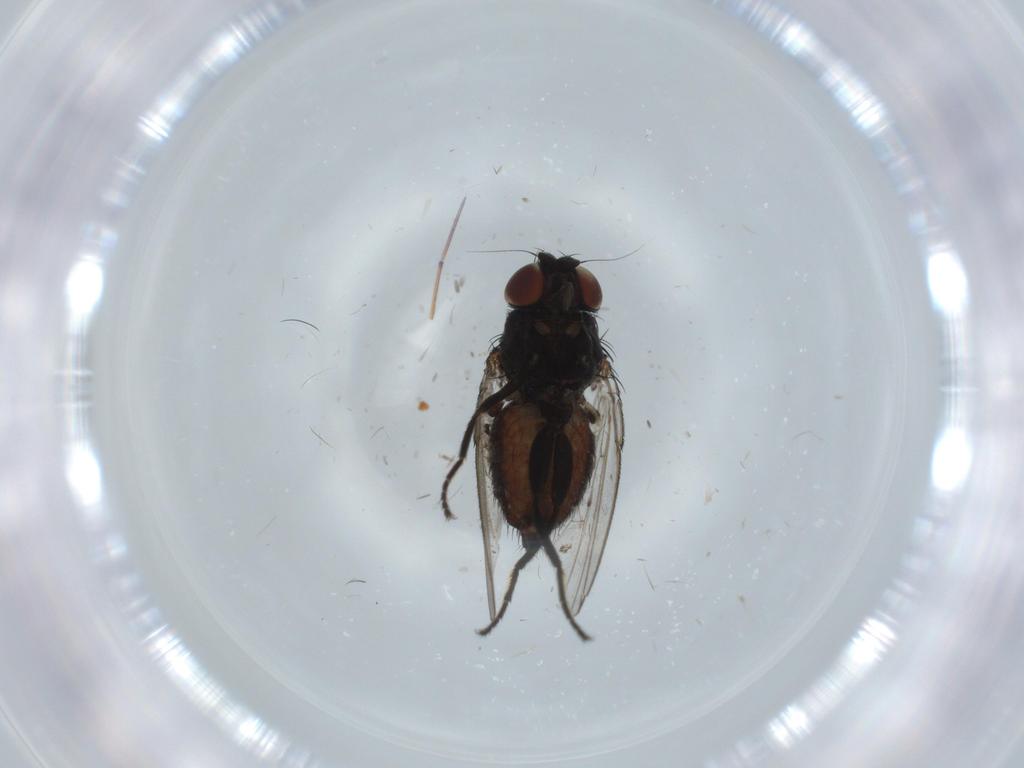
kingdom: Animalia
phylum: Arthropoda
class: Insecta
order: Diptera
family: Milichiidae
